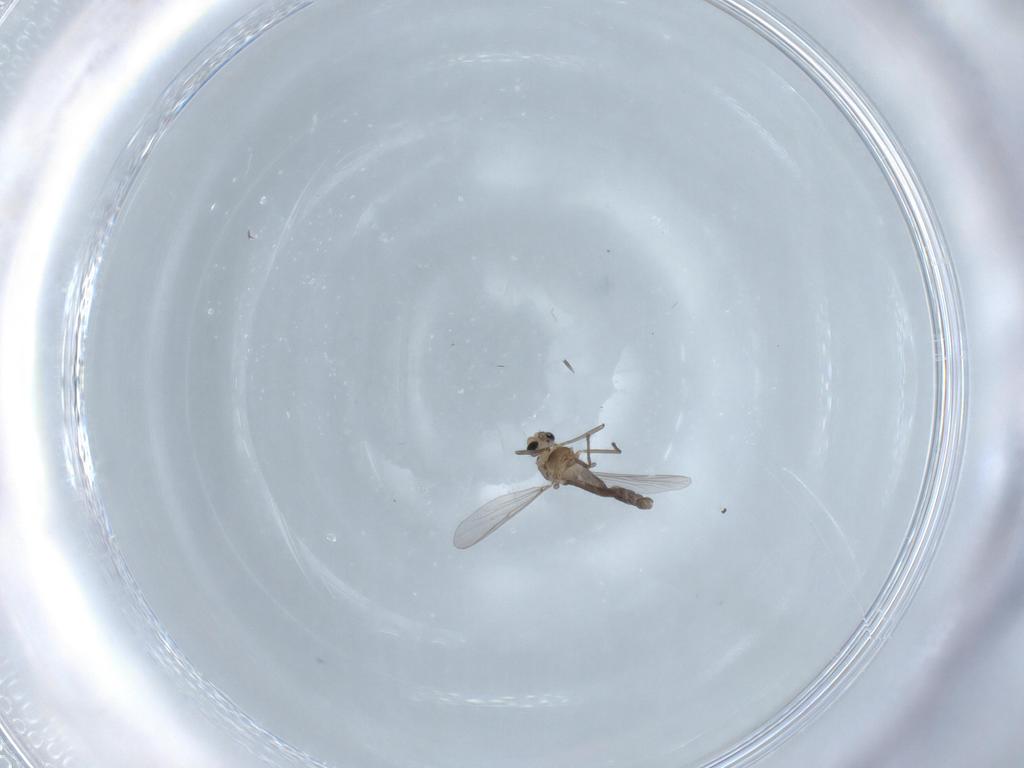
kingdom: Animalia
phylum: Arthropoda
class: Insecta
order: Diptera
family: Chironomidae
